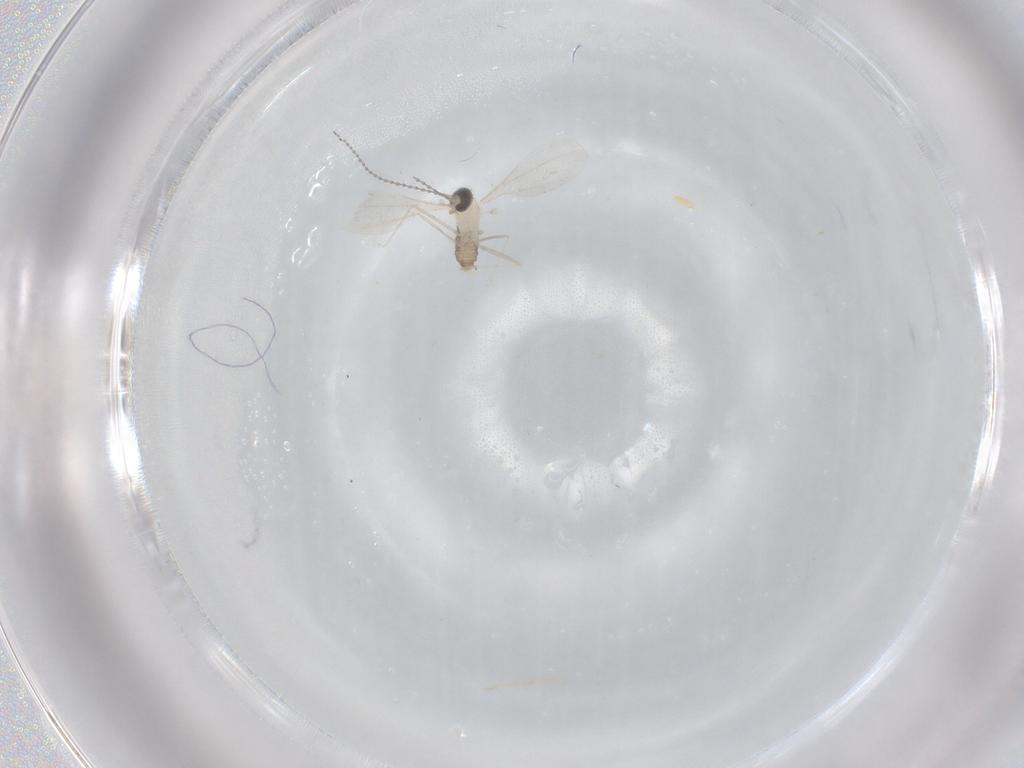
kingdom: Animalia
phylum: Arthropoda
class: Insecta
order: Diptera
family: Cecidomyiidae
